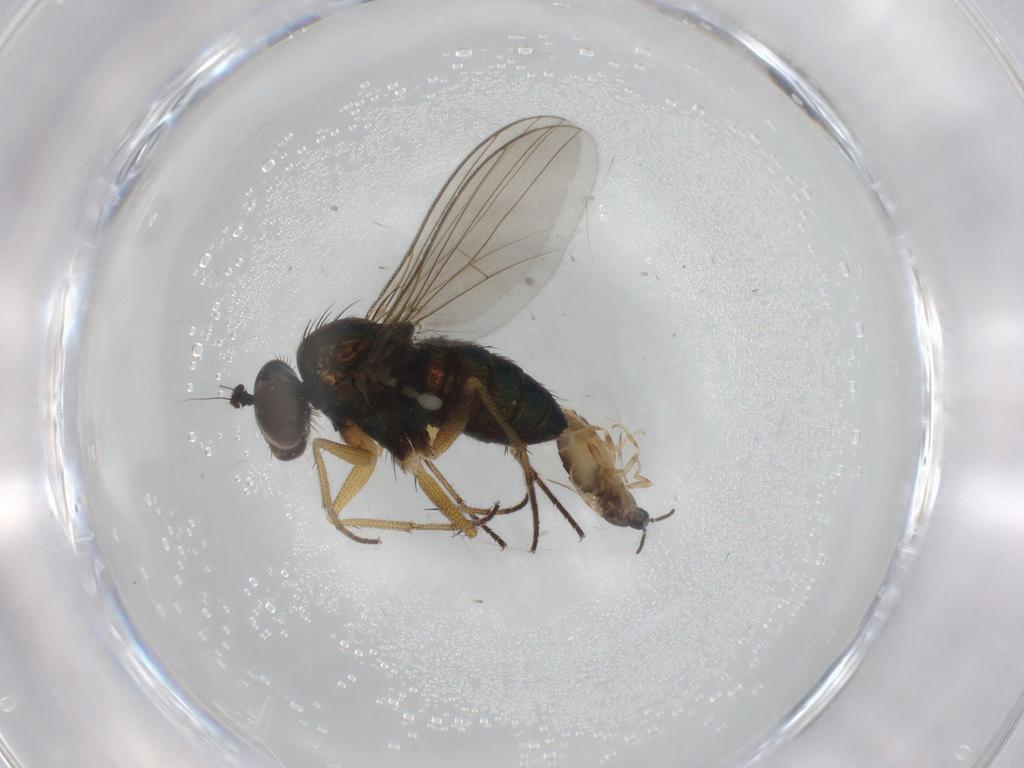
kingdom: Animalia
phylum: Arthropoda
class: Insecta
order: Diptera
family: Scatopsidae
